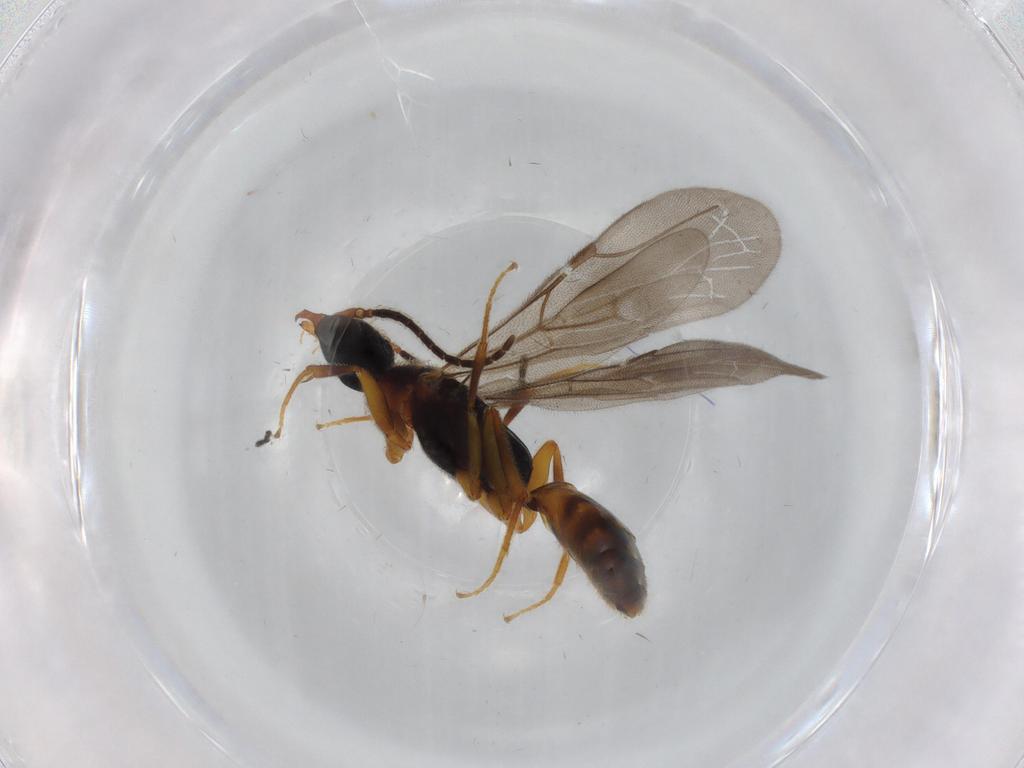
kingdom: Animalia
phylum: Arthropoda
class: Insecta
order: Hymenoptera
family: Bethylidae
